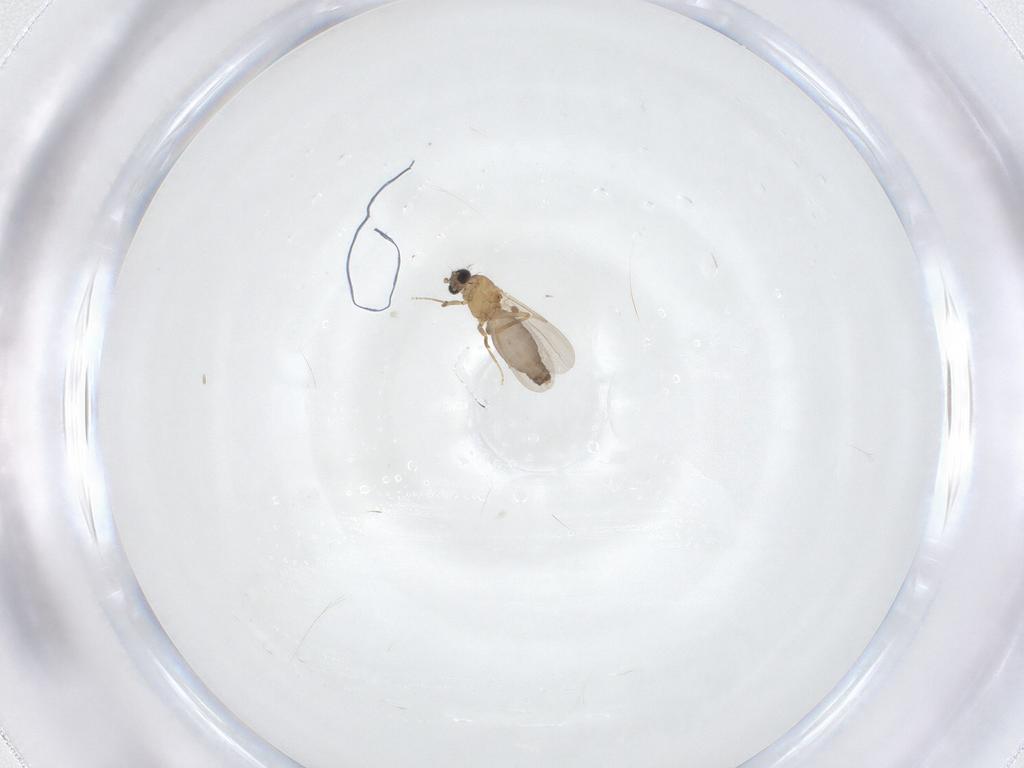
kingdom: Animalia
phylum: Arthropoda
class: Insecta
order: Diptera
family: Ceratopogonidae
